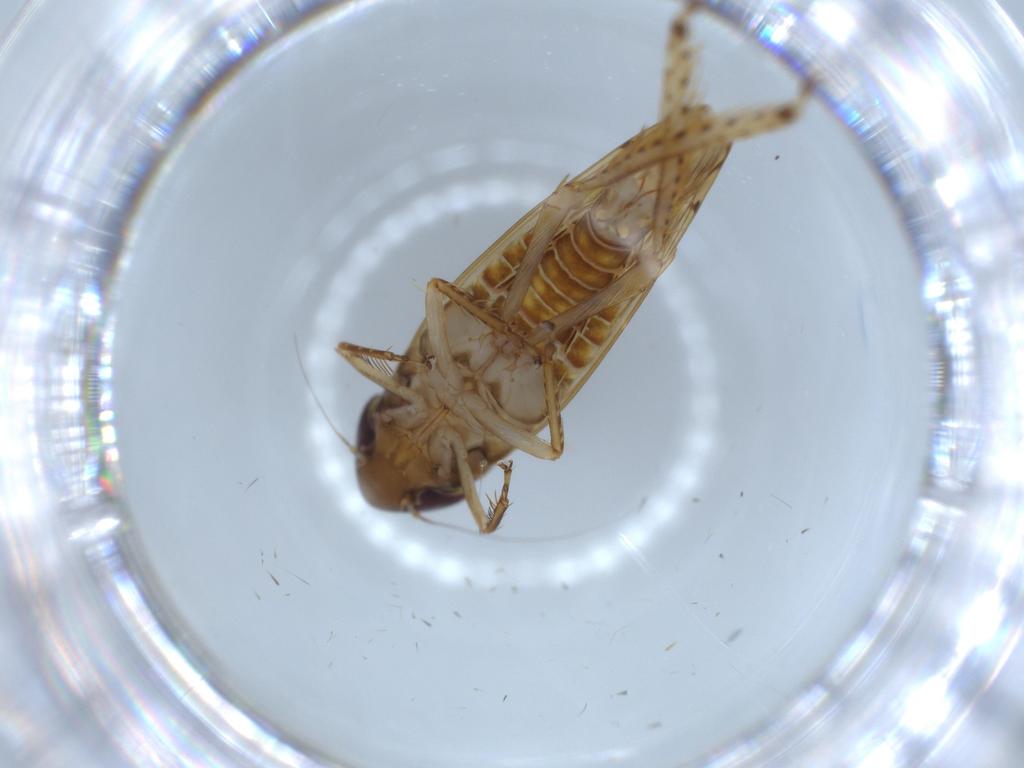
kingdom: Animalia
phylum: Arthropoda
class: Insecta
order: Hemiptera
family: Cicadellidae
